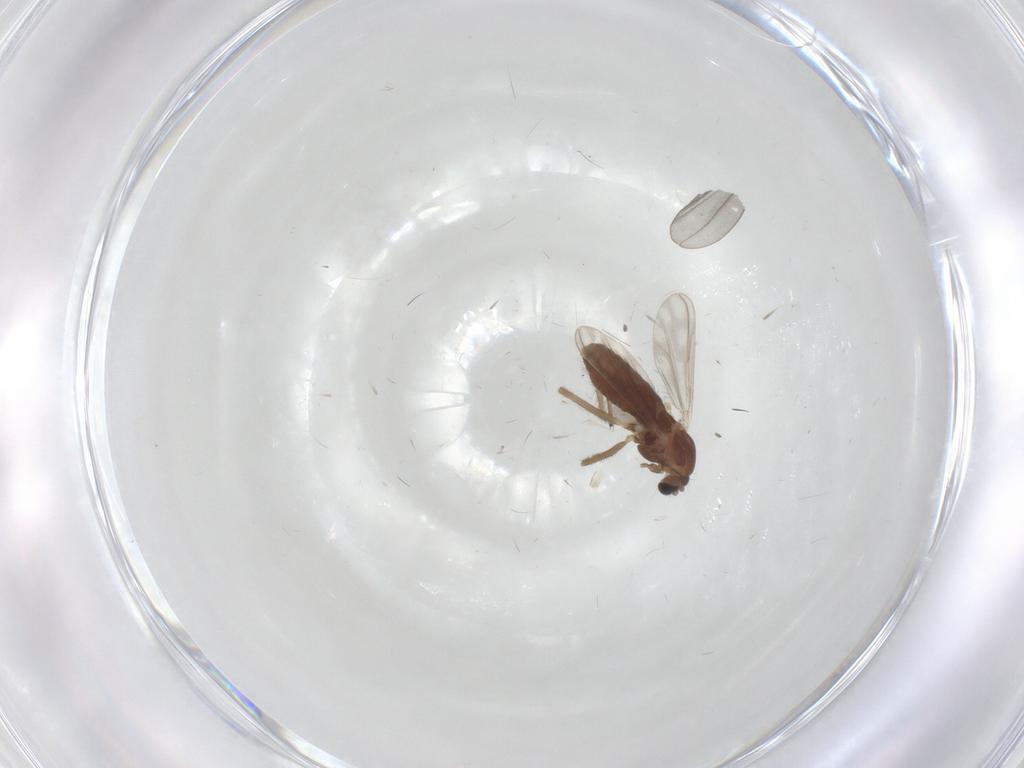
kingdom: Animalia
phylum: Arthropoda
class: Insecta
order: Diptera
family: Chironomidae
